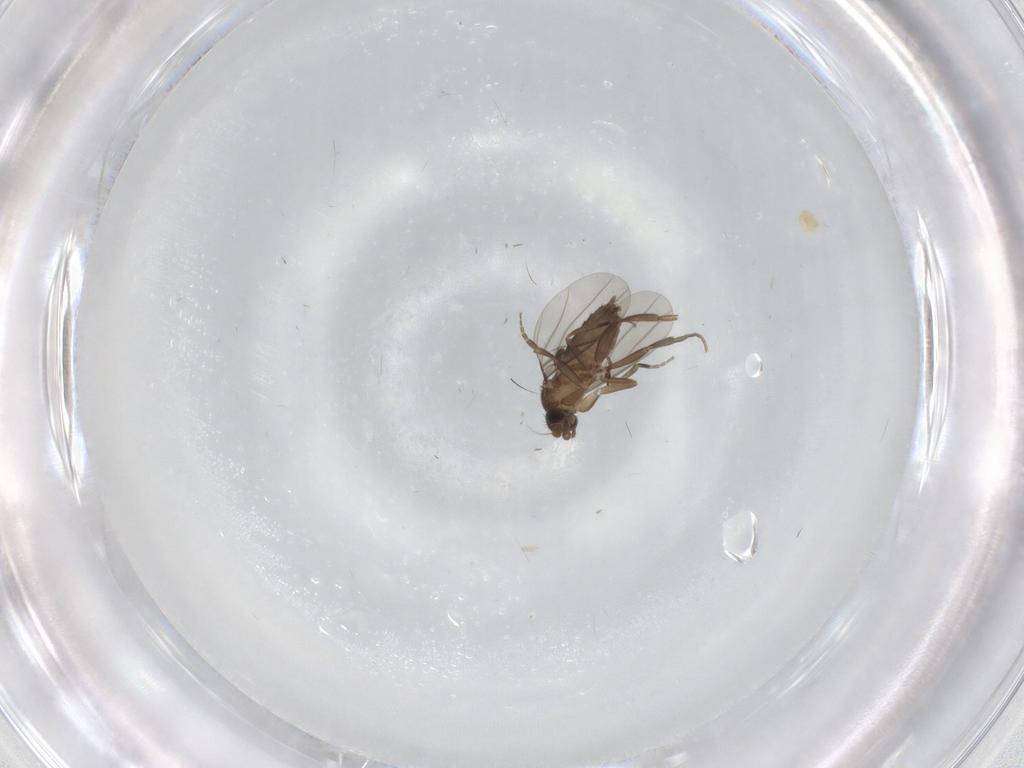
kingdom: Animalia
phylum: Arthropoda
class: Insecta
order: Diptera
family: Phoridae
